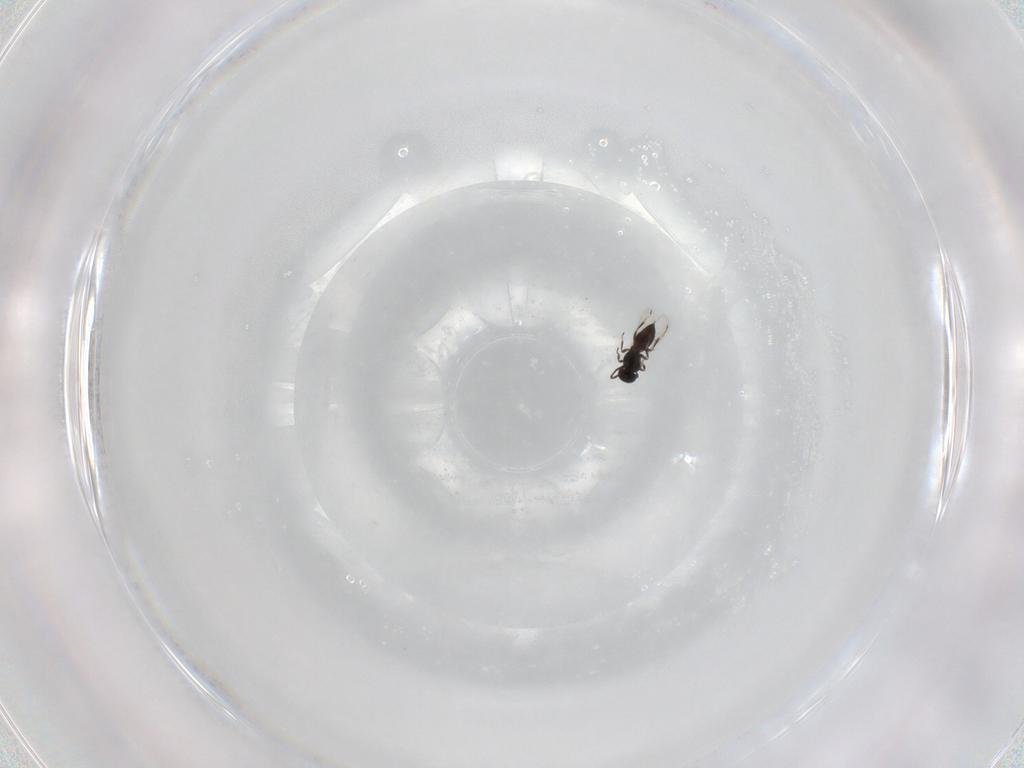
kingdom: Animalia
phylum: Arthropoda
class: Insecta
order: Hymenoptera
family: Scelionidae
